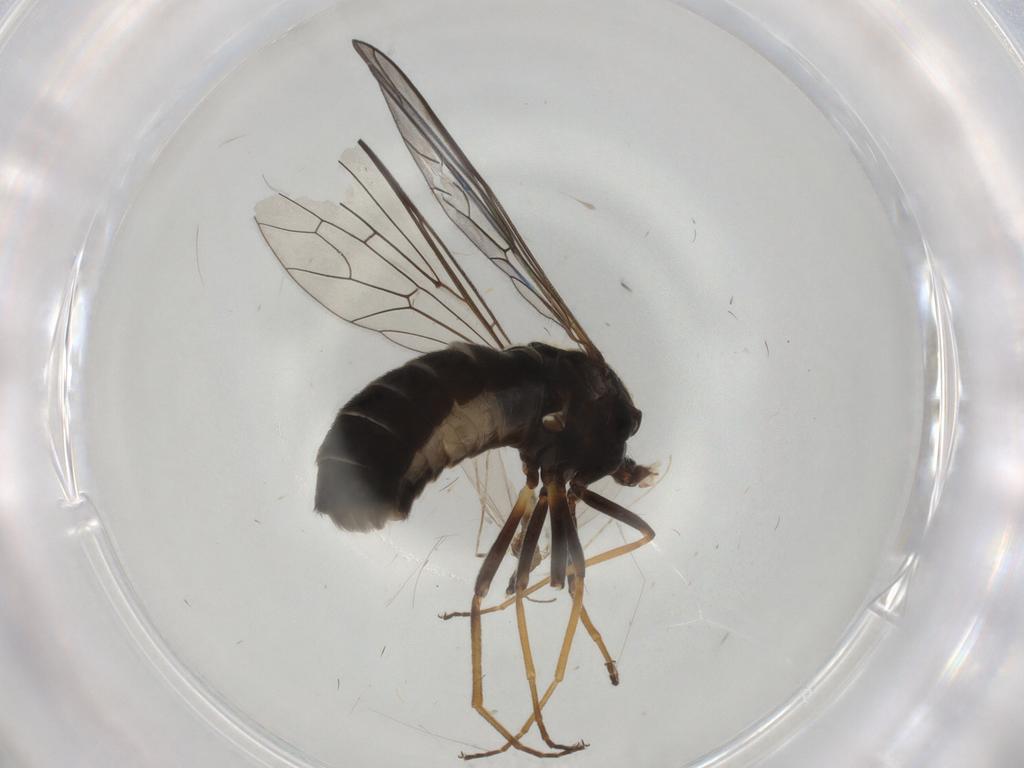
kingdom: Animalia
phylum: Arthropoda
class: Insecta
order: Diptera
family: Bombyliidae
